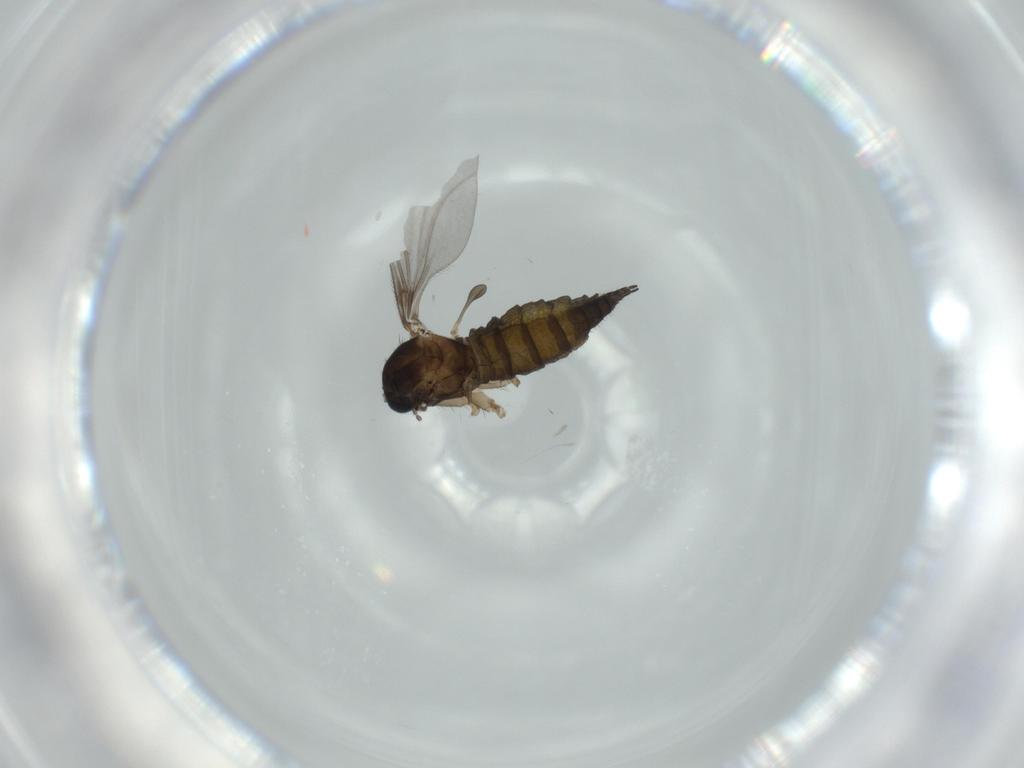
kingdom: Animalia
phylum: Arthropoda
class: Insecta
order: Diptera
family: Sciaridae
